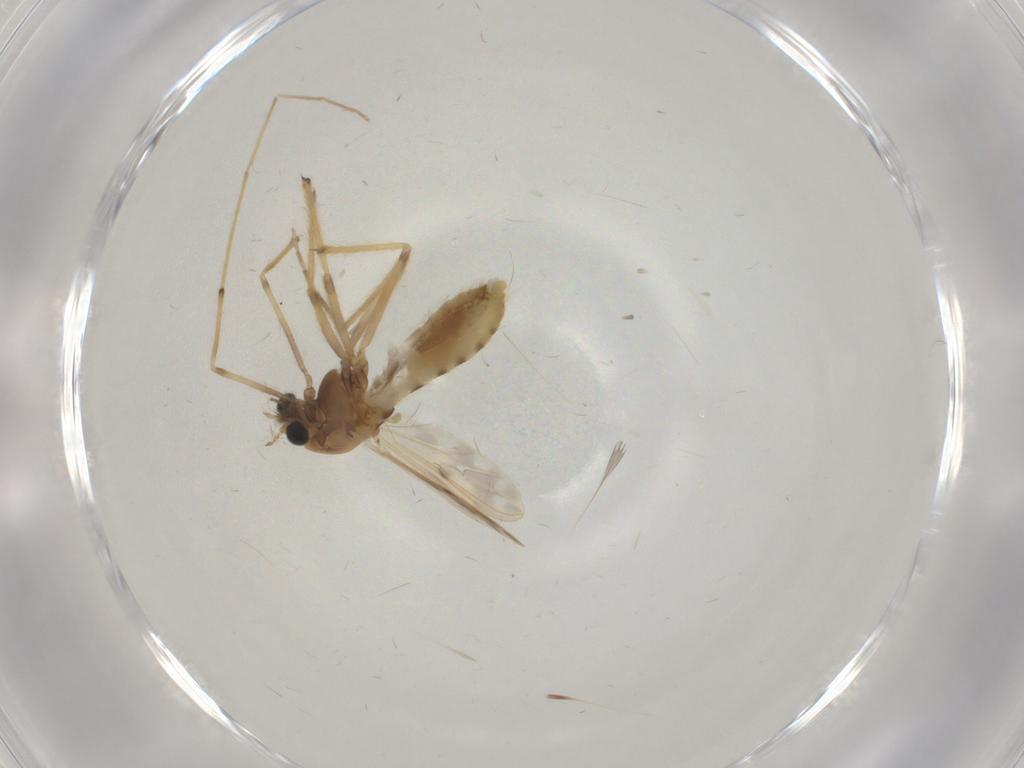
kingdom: Animalia
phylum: Arthropoda
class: Insecta
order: Diptera
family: Chironomidae
